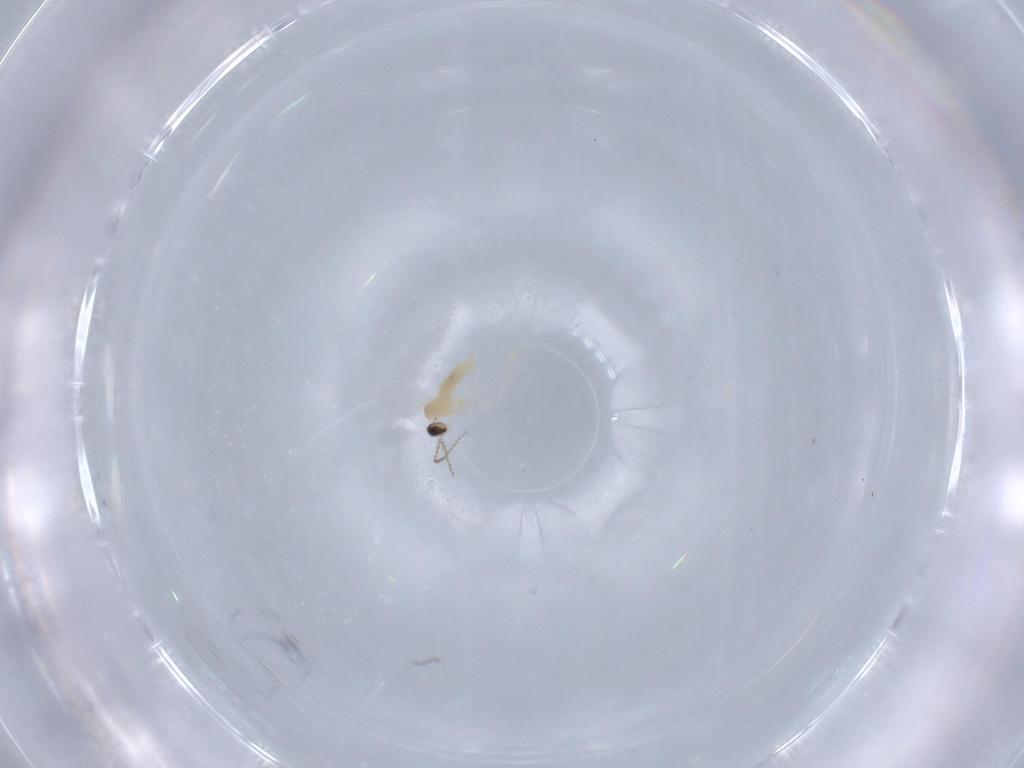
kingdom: Animalia
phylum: Arthropoda
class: Insecta
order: Diptera
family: Cecidomyiidae
